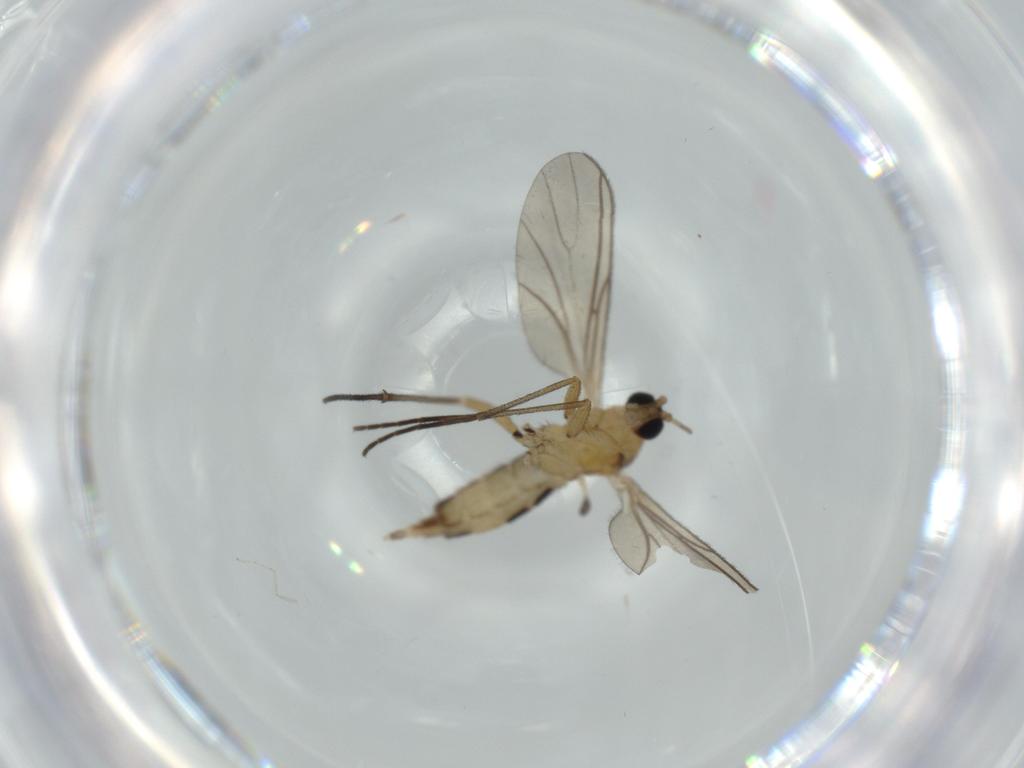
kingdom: Animalia
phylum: Arthropoda
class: Insecta
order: Diptera
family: Cecidomyiidae
